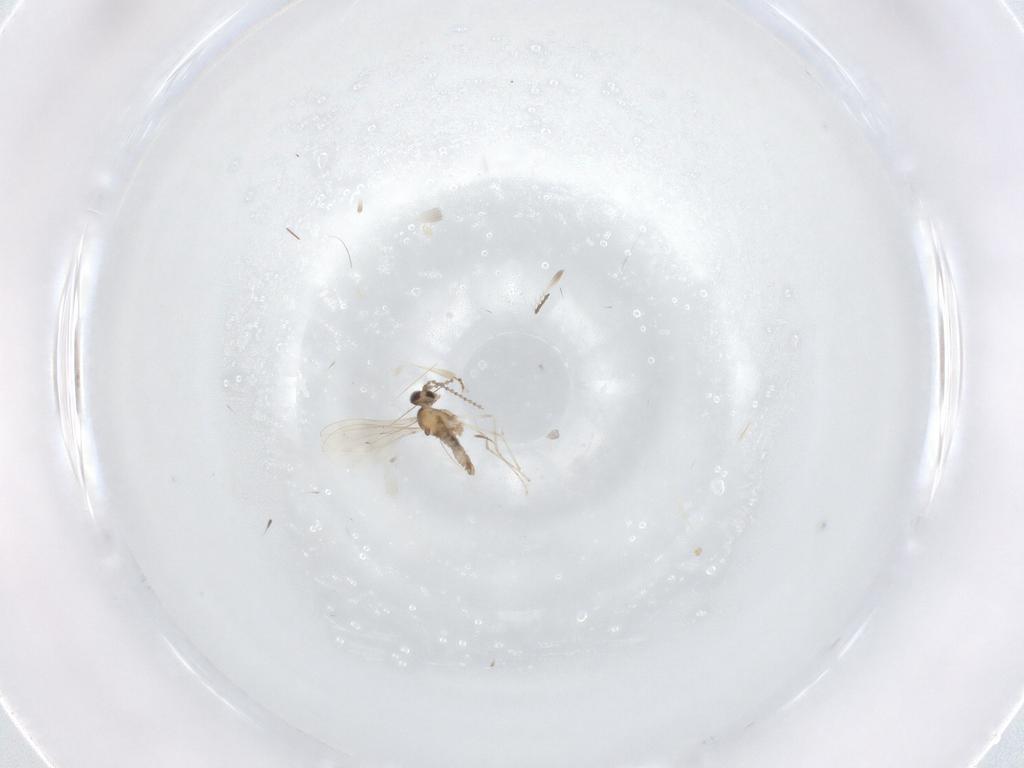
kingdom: Animalia
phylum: Arthropoda
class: Insecta
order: Diptera
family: Cecidomyiidae
